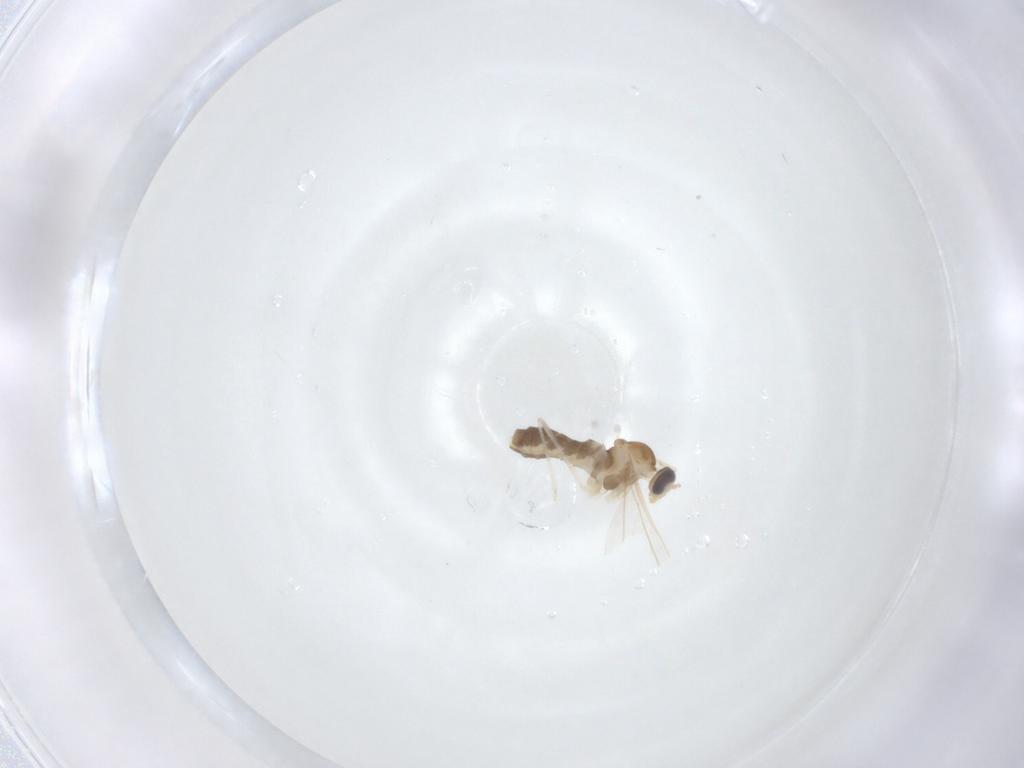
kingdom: Animalia
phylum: Arthropoda
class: Insecta
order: Diptera
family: Cecidomyiidae
